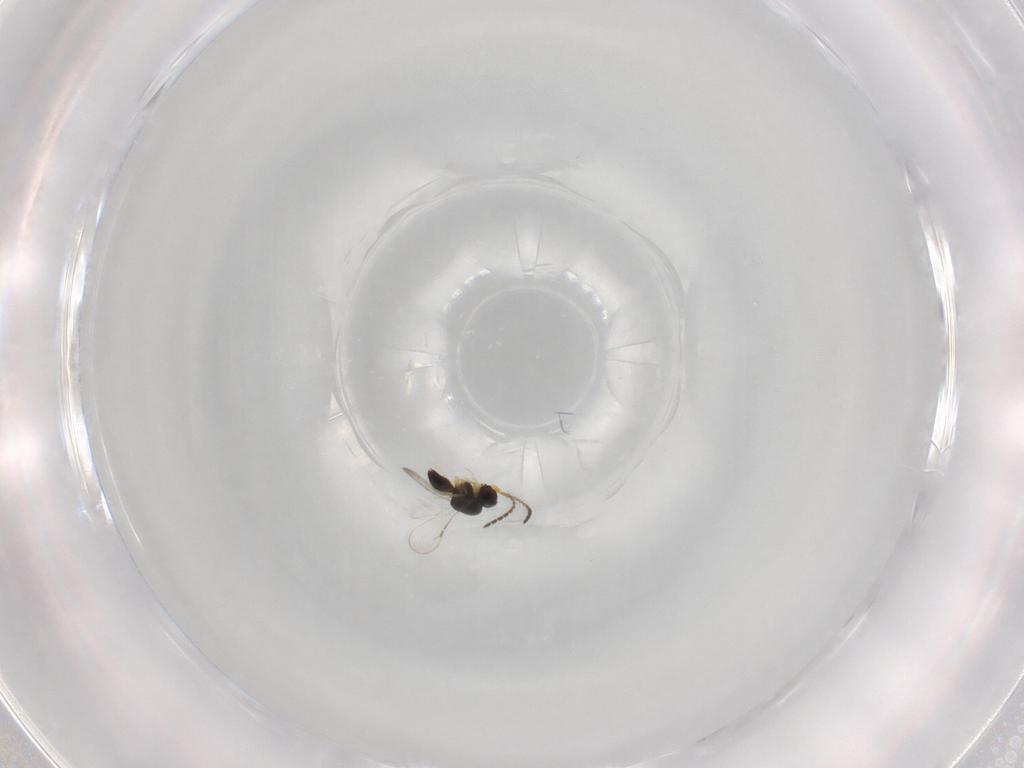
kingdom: Animalia
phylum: Arthropoda
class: Insecta
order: Hymenoptera
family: Ceraphronidae
